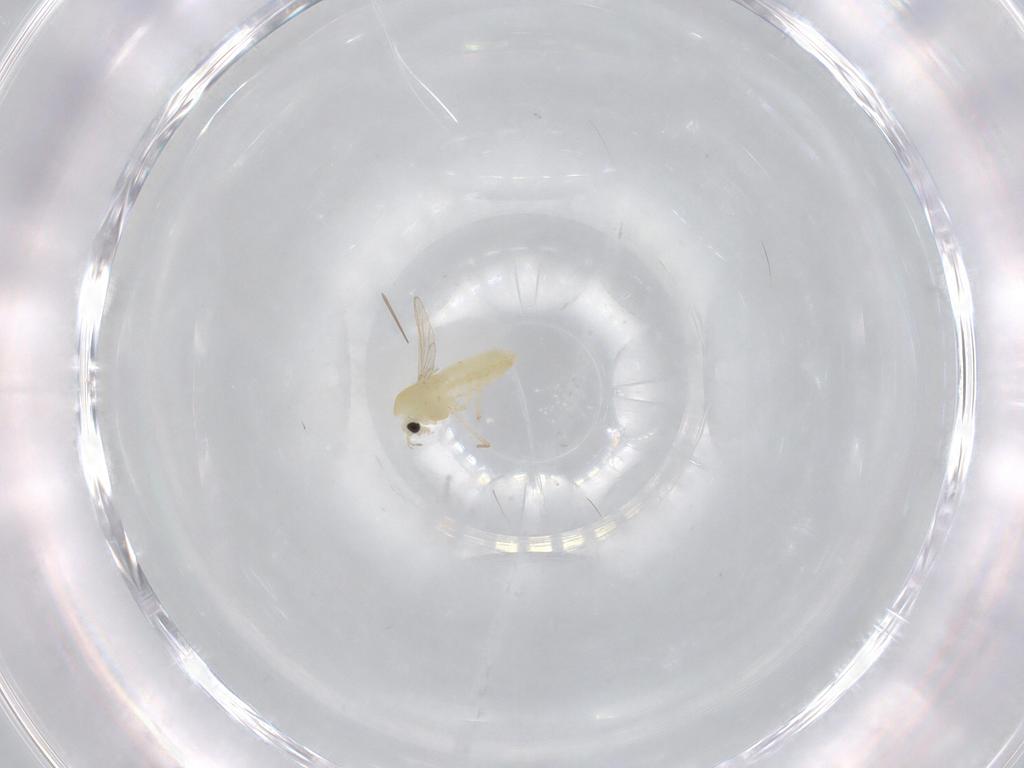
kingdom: Animalia
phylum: Arthropoda
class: Insecta
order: Diptera
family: Chironomidae
